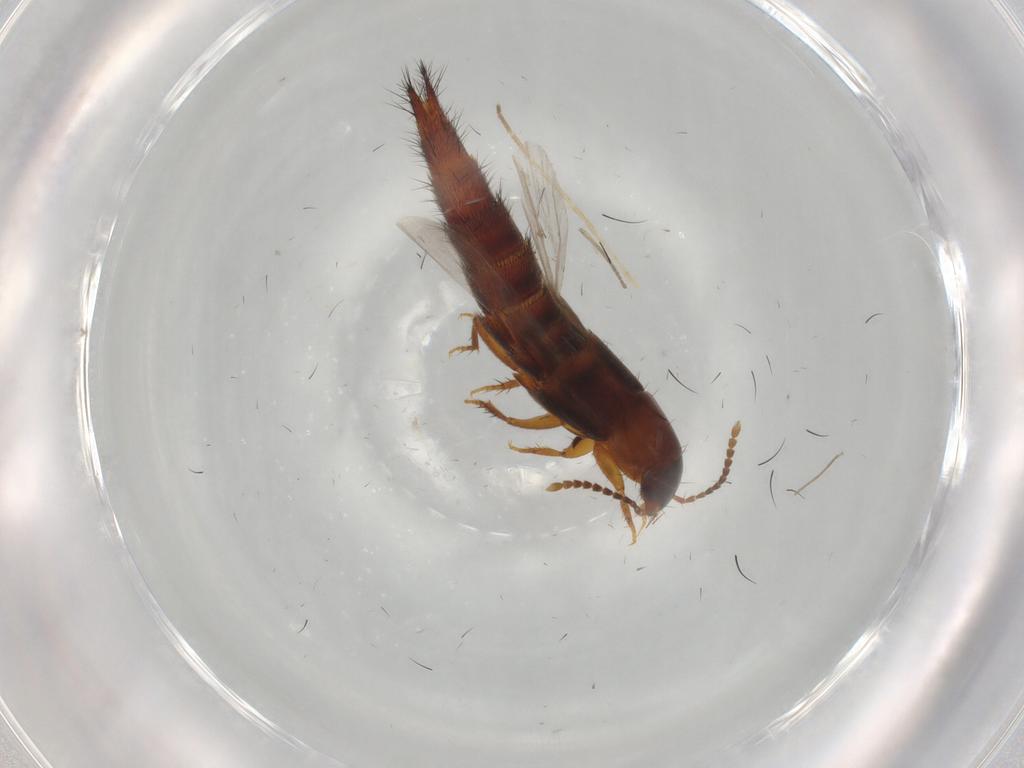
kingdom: Animalia
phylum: Arthropoda
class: Insecta
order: Coleoptera
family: Staphylinidae
